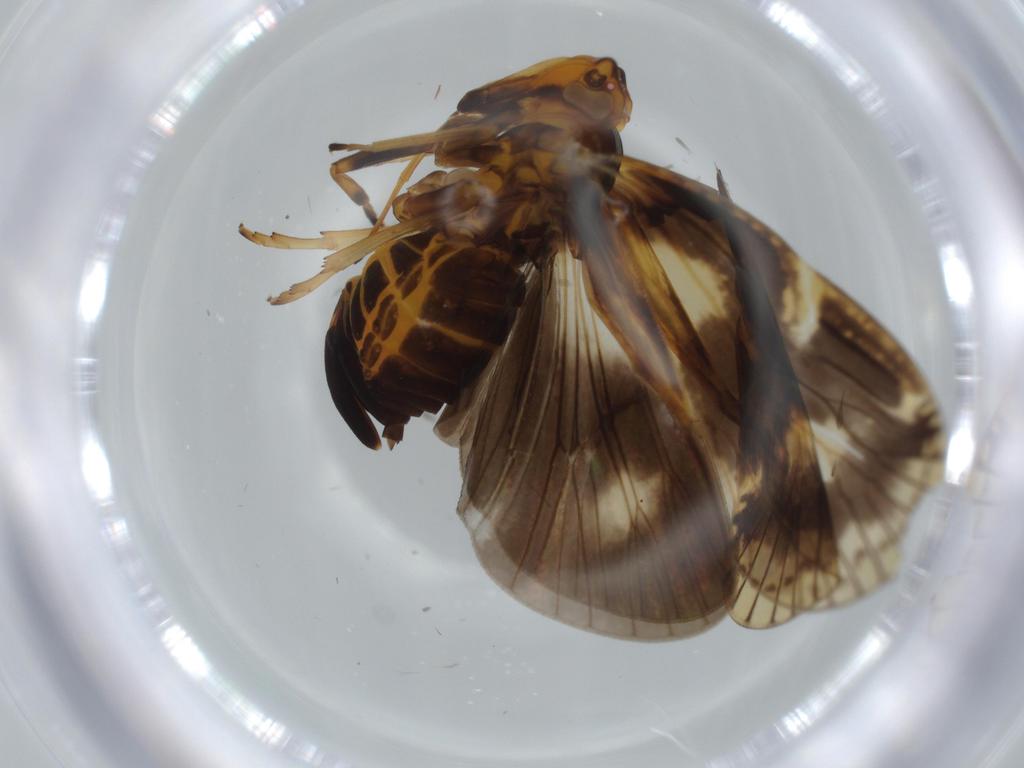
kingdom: Animalia
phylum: Arthropoda
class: Insecta
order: Hemiptera
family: Cixiidae
